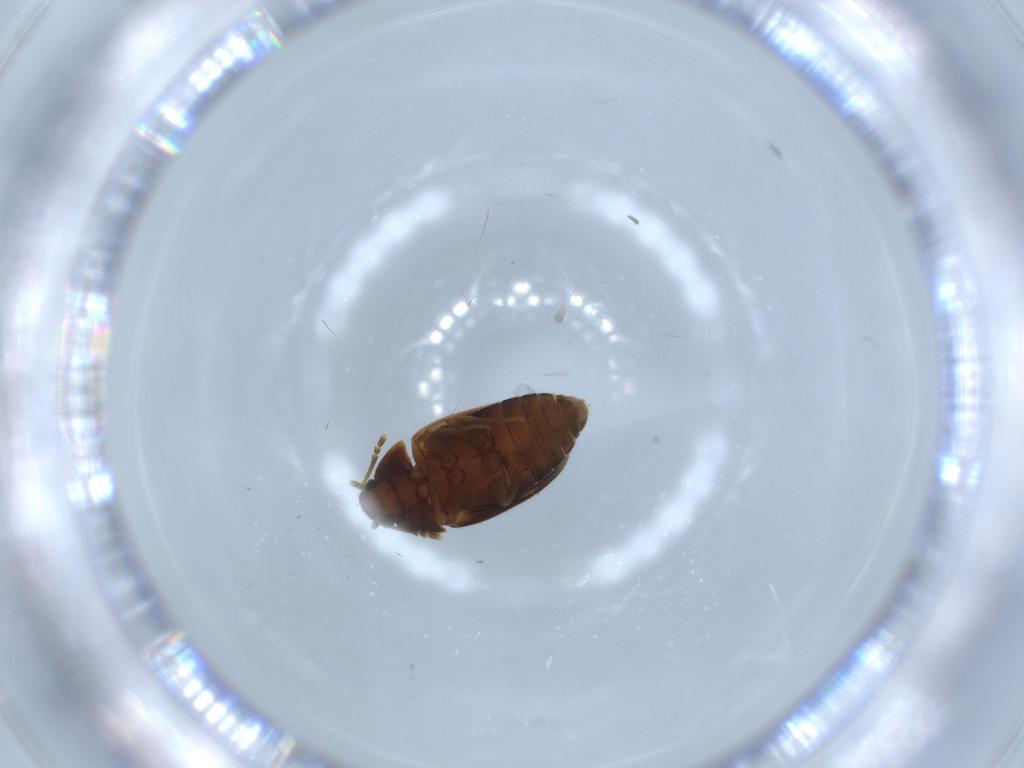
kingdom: Animalia
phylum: Arthropoda
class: Insecta
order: Coleoptera
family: Mycetophagidae
